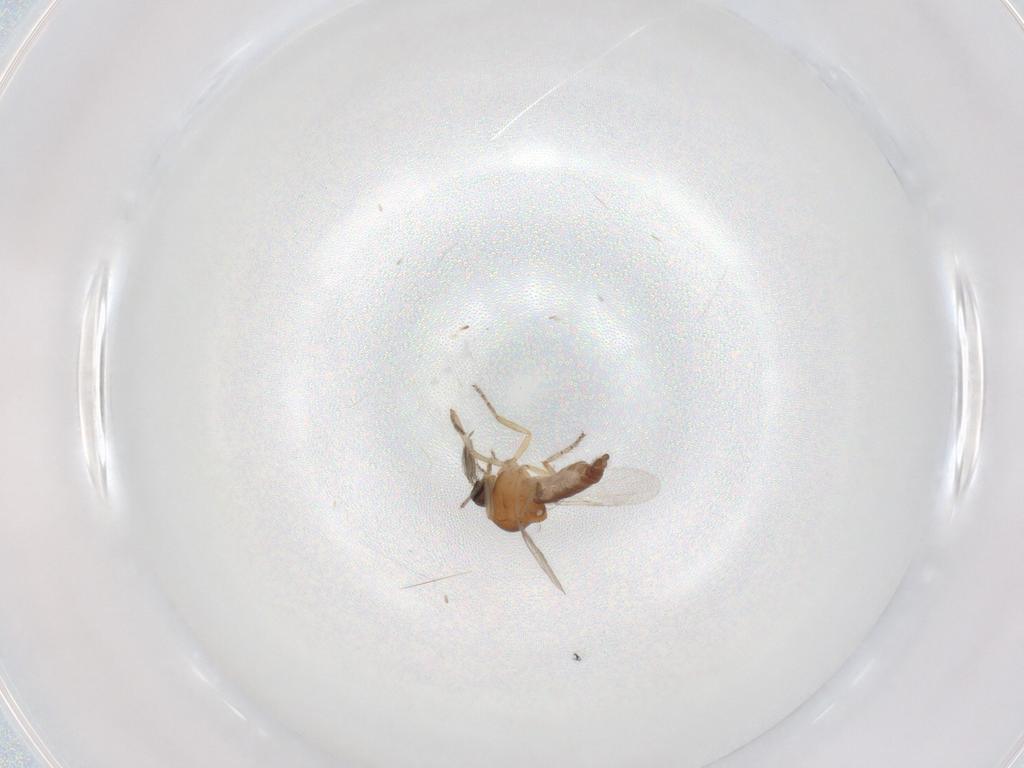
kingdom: Animalia
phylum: Arthropoda
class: Insecta
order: Diptera
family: Ceratopogonidae
